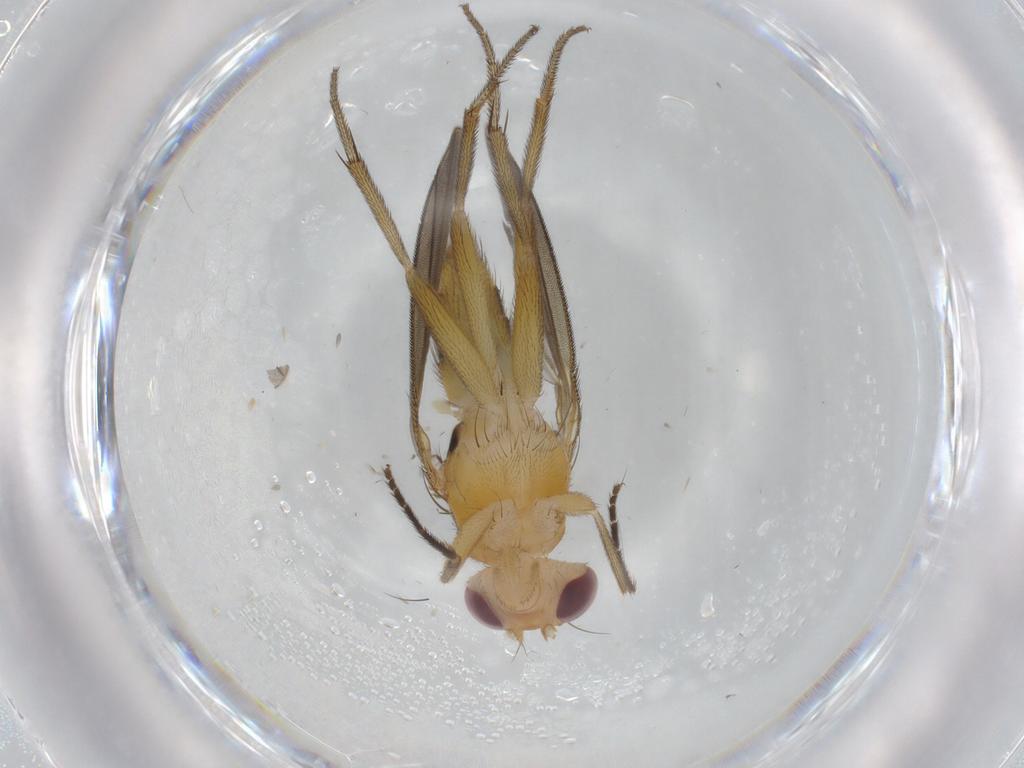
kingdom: Animalia
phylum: Arthropoda
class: Insecta
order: Diptera
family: Clusiidae
